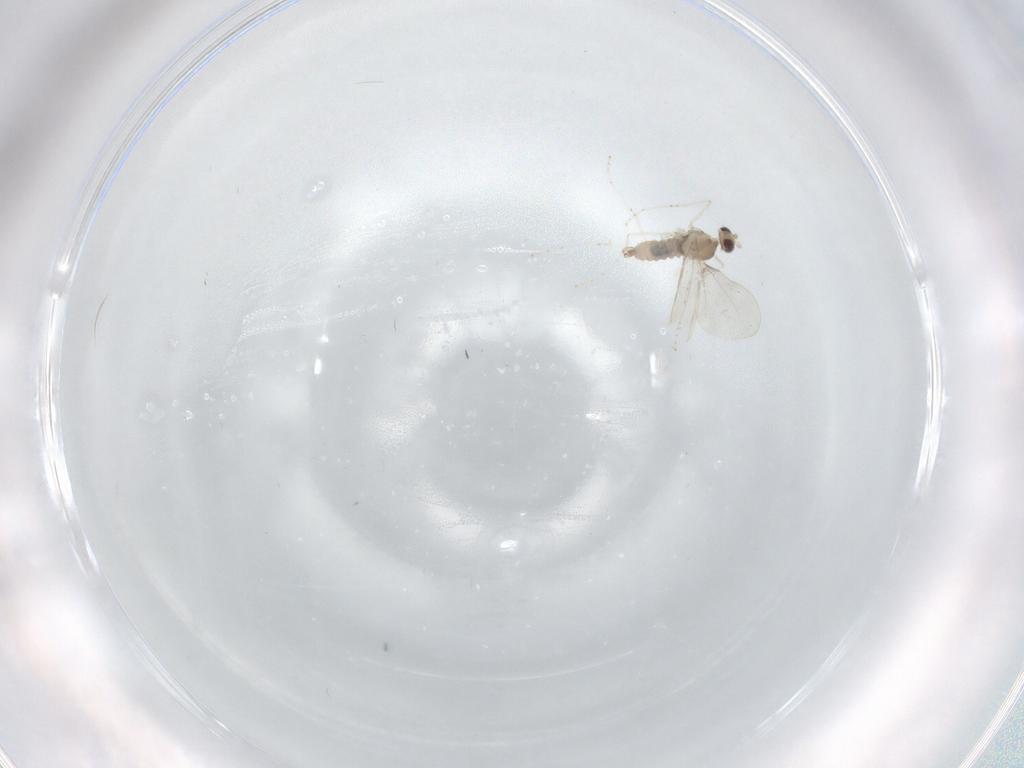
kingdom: Animalia
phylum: Arthropoda
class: Insecta
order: Diptera
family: Cecidomyiidae
